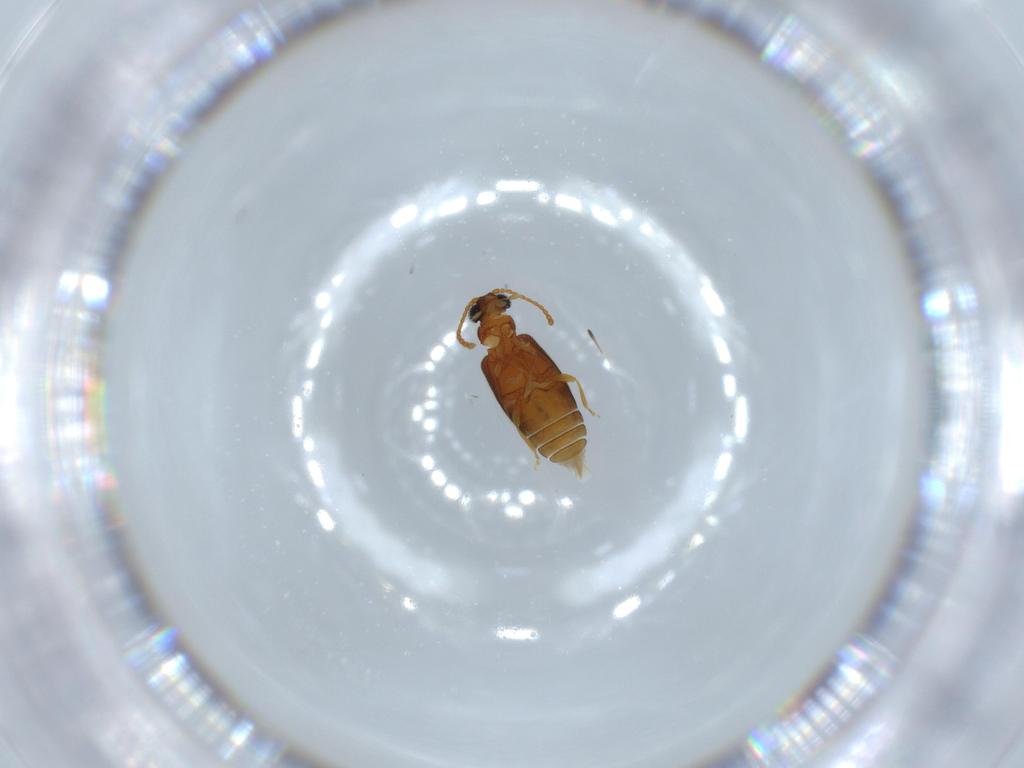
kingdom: Animalia
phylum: Arthropoda
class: Insecta
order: Coleoptera
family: Aderidae
